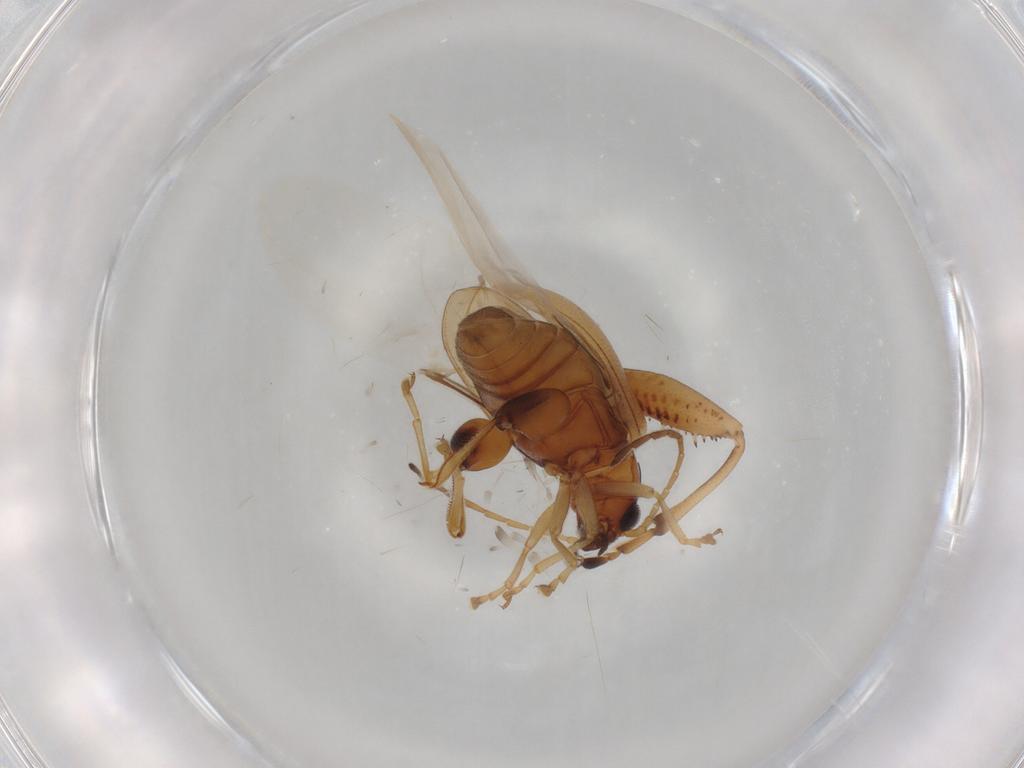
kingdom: Animalia
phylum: Arthropoda
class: Insecta
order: Coleoptera
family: Chrysomelidae
